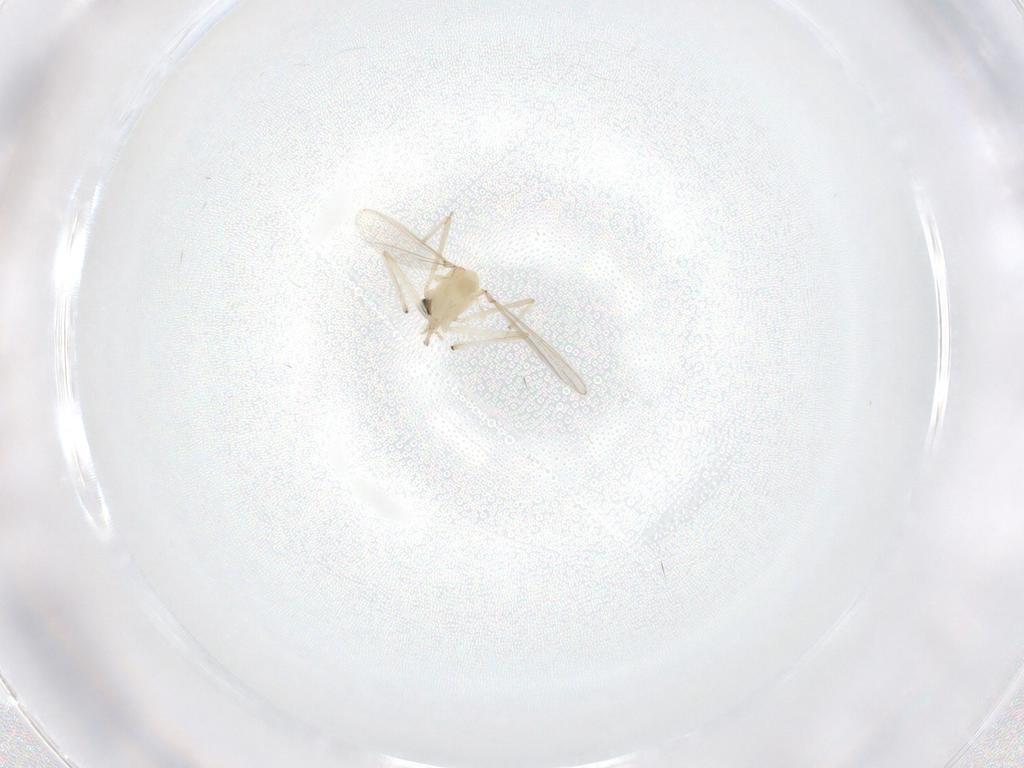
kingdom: Animalia
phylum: Arthropoda
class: Insecta
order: Diptera
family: Chironomidae
